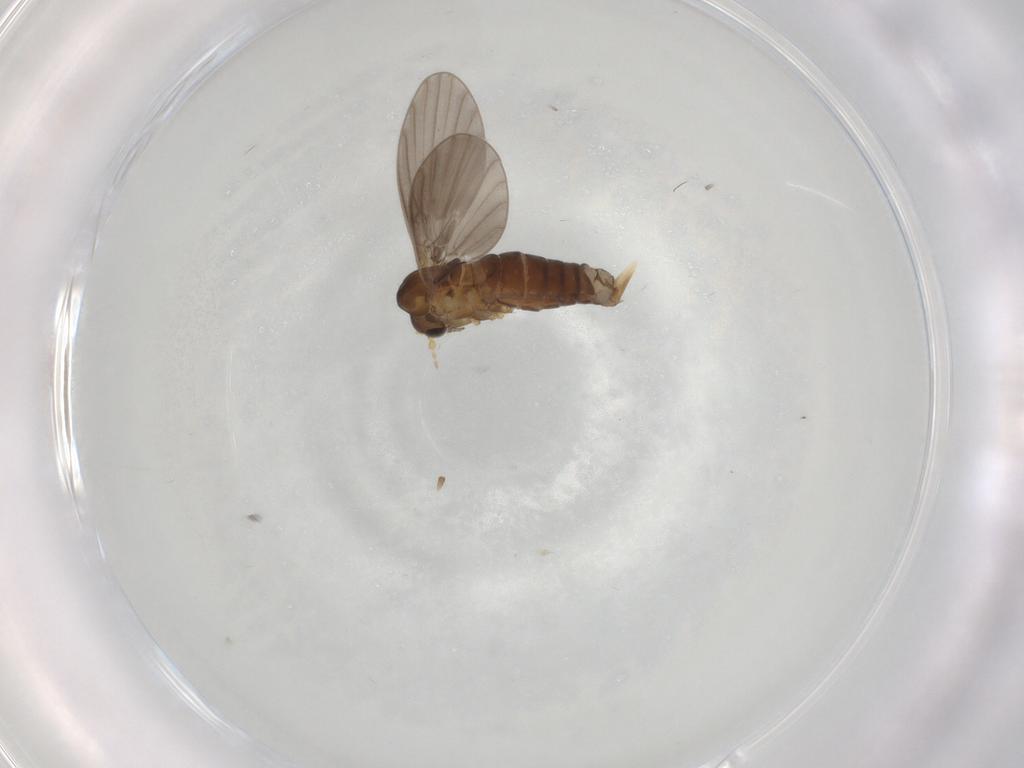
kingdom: Animalia
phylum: Arthropoda
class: Insecta
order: Diptera
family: Psychodidae
